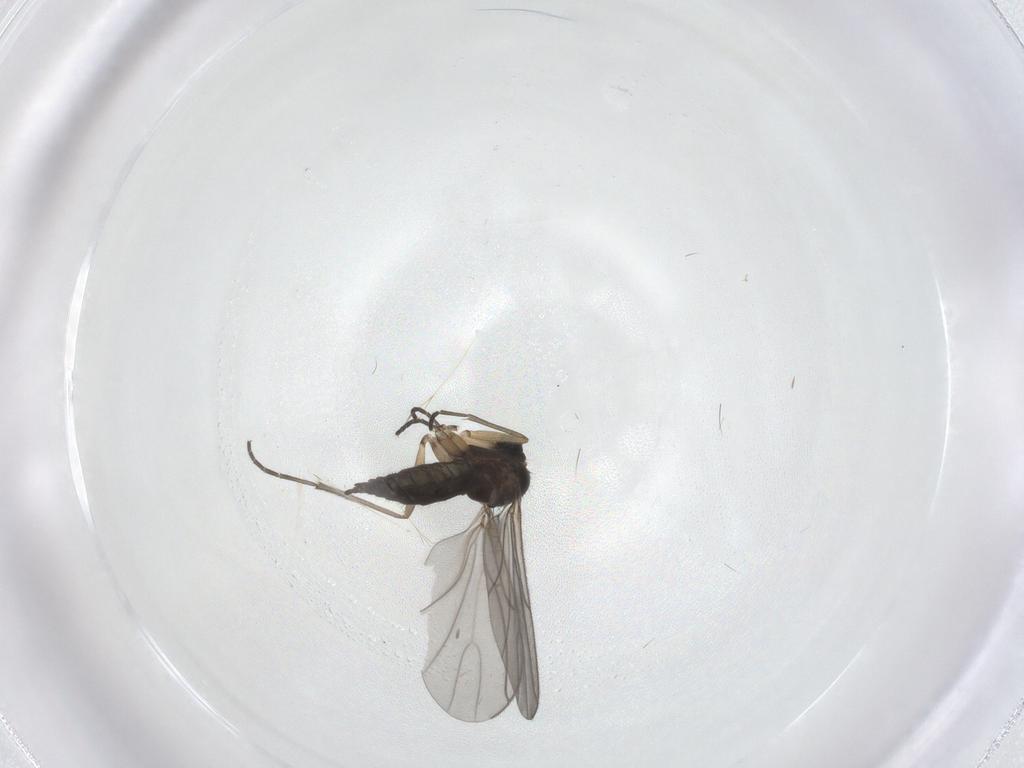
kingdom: Animalia
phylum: Arthropoda
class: Insecta
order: Diptera
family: Sciaridae
